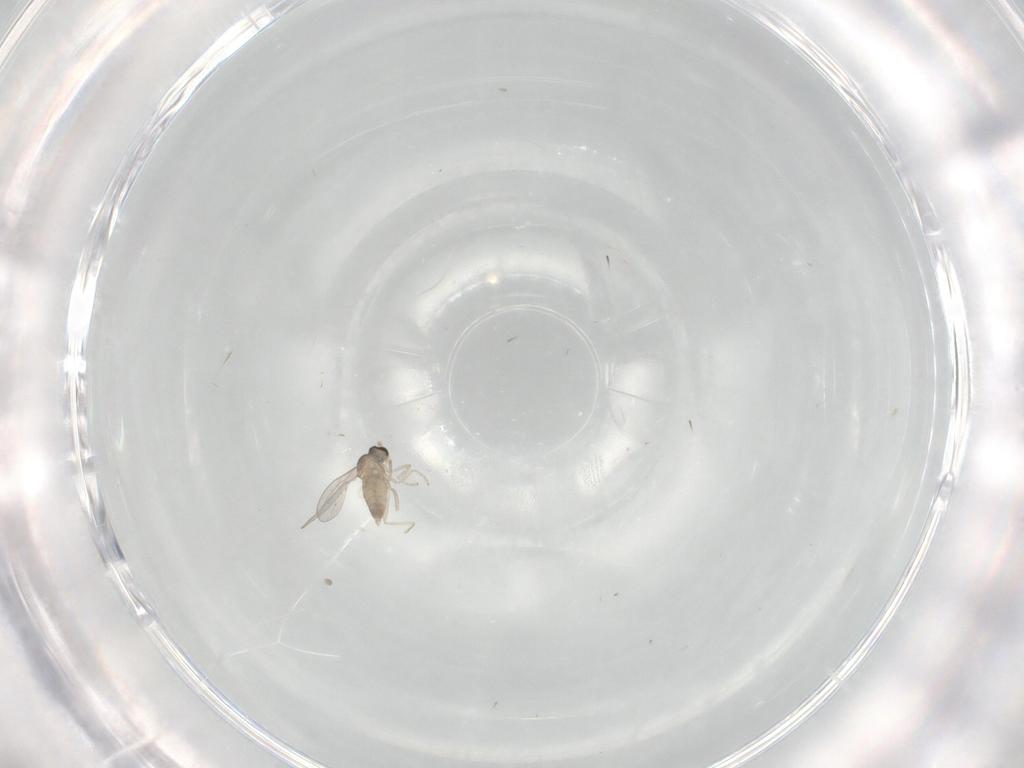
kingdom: Animalia
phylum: Arthropoda
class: Insecta
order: Diptera
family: Cecidomyiidae
